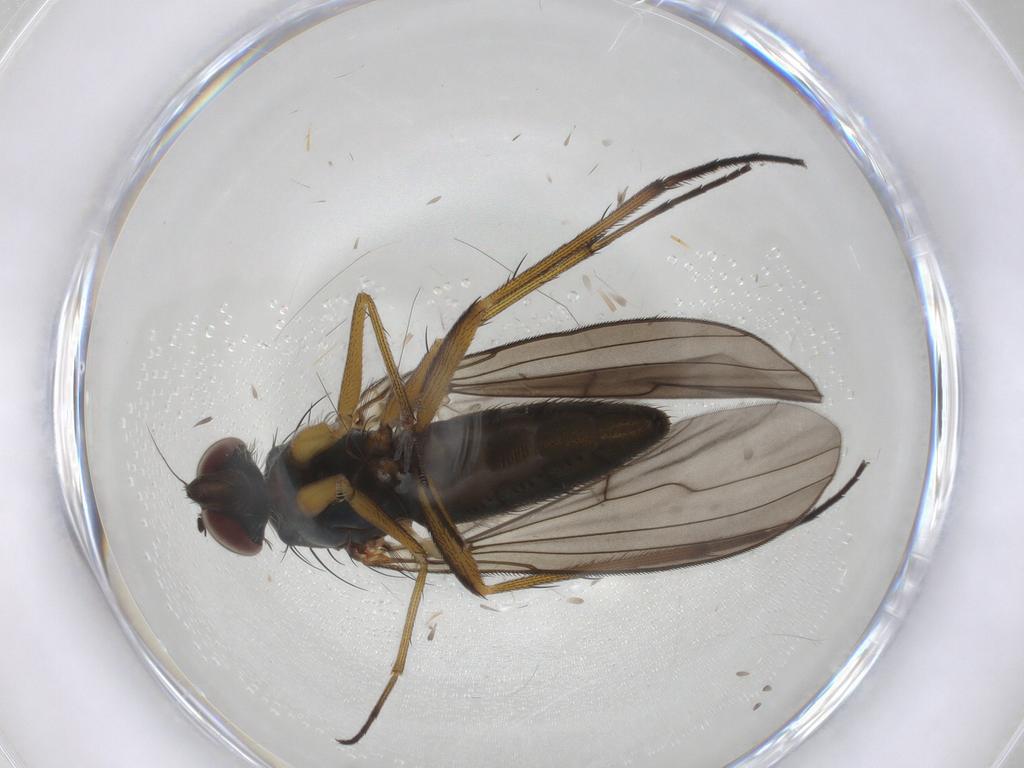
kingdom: Animalia
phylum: Arthropoda
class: Insecta
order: Diptera
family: Dolichopodidae
